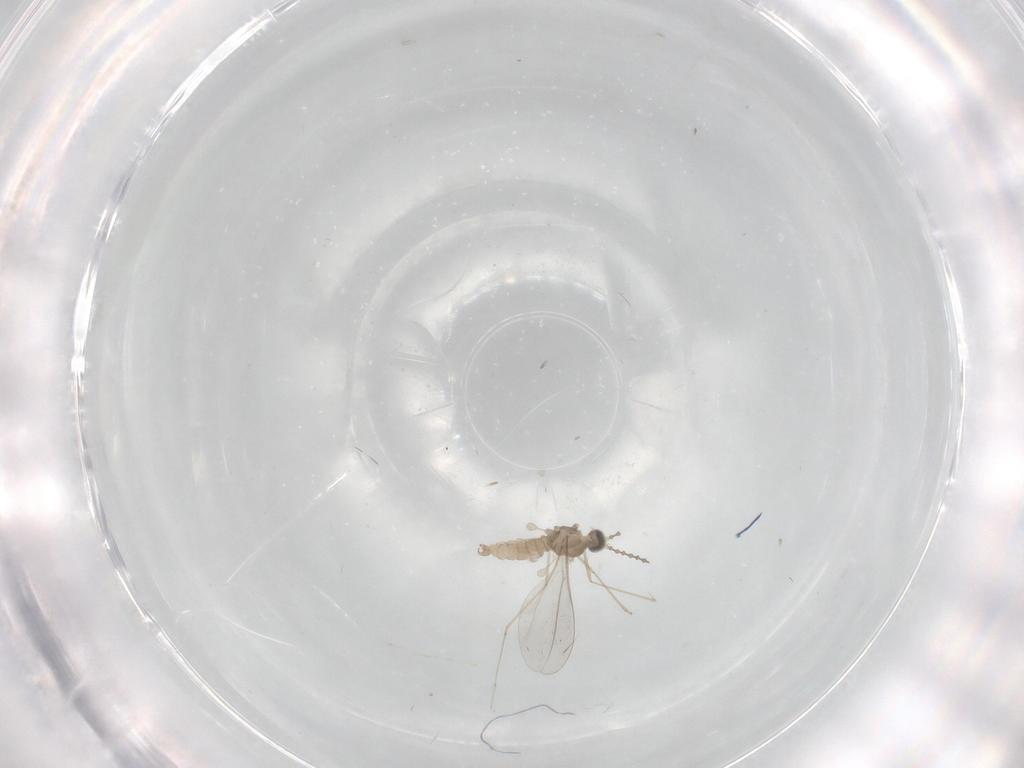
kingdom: Animalia
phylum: Arthropoda
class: Insecta
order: Diptera
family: Cecidomyiidae
